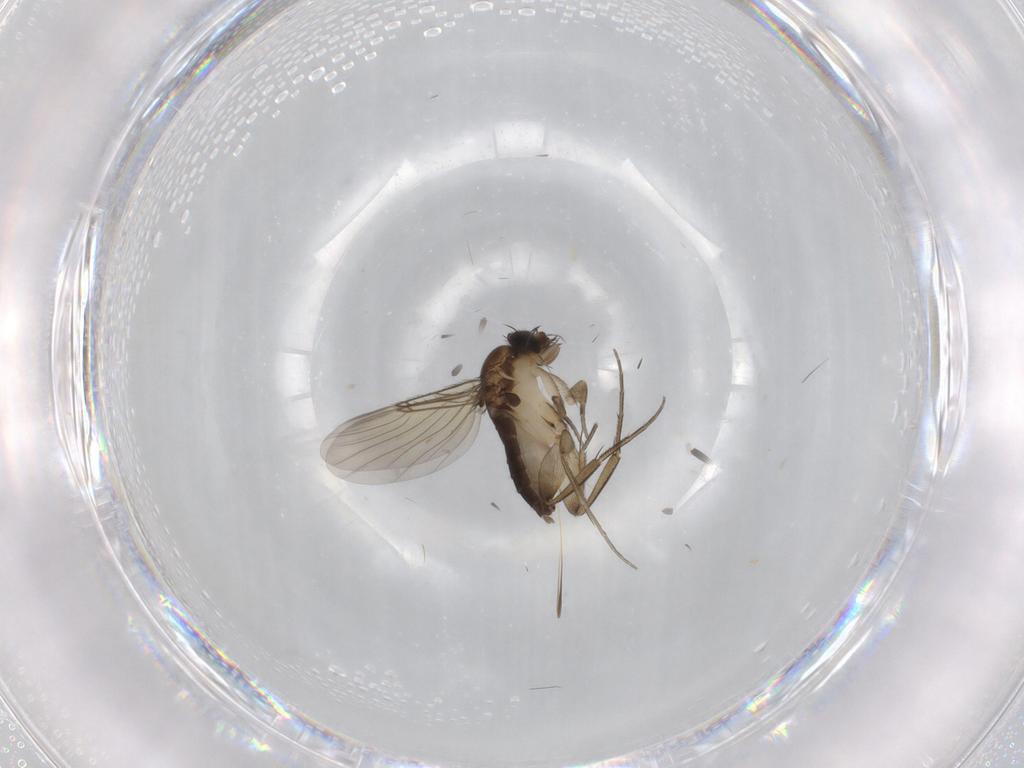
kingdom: Animalia
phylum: Arthropoda
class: Insecta
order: Diptera
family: Phoridae
